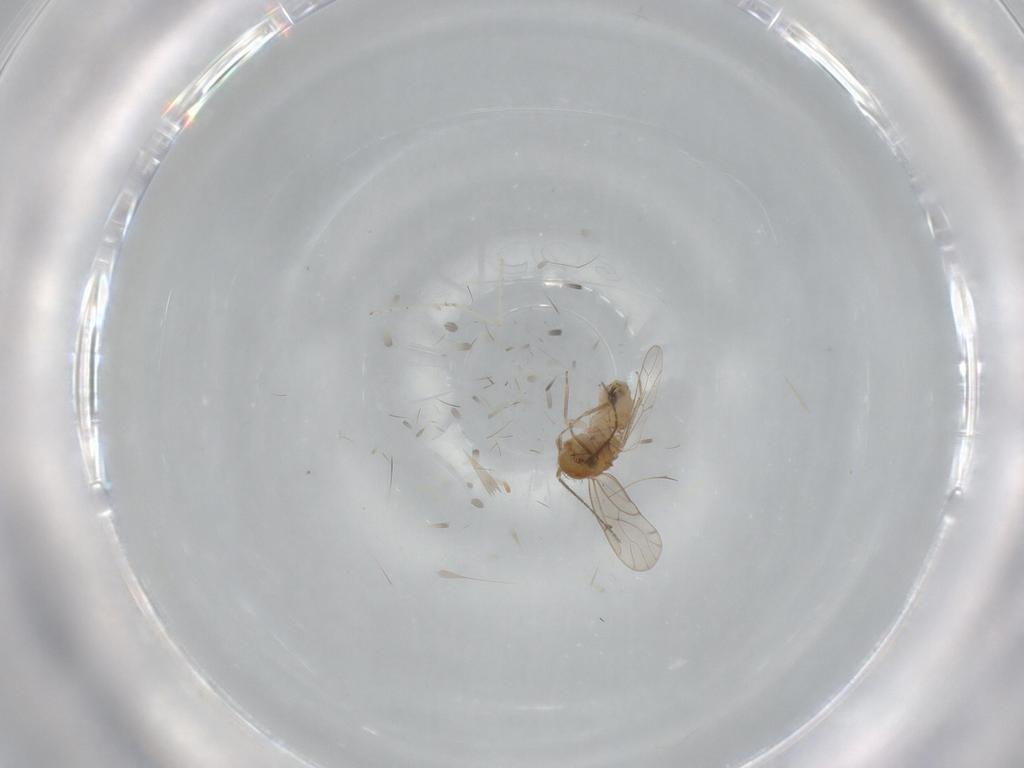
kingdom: Animalia
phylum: Arthropoda
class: Insecta
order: Psocodea
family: Ectopsocidae
